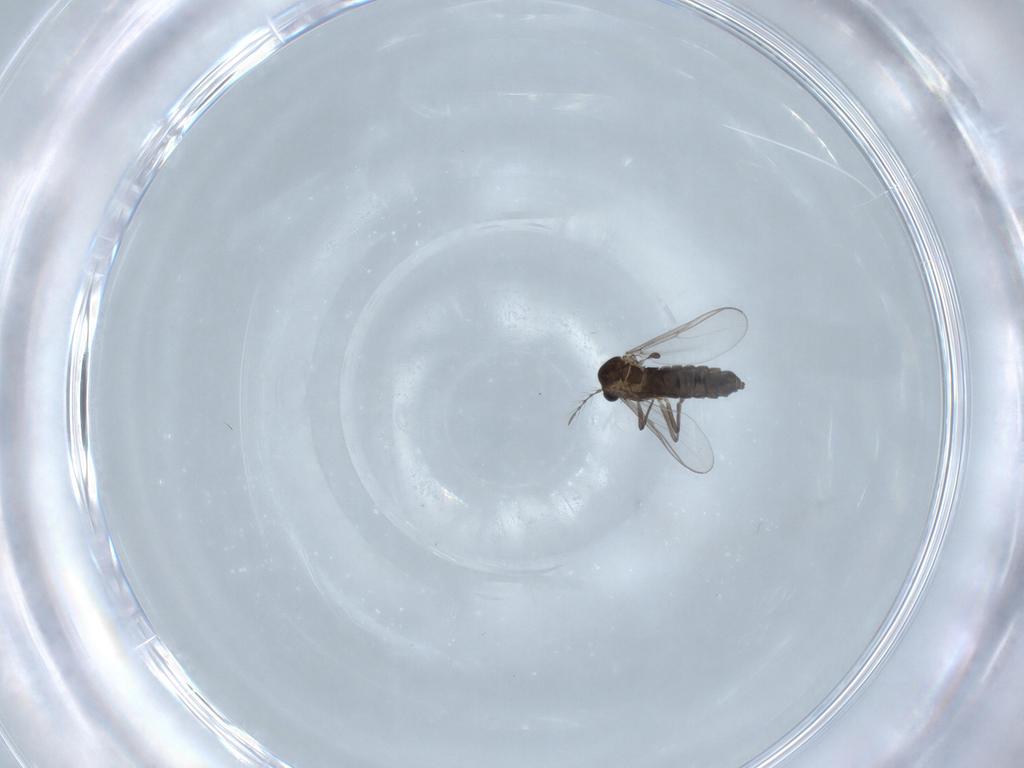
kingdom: Animalia
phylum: Arthropoda
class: Insecta
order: Diptera
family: Chironomidae
